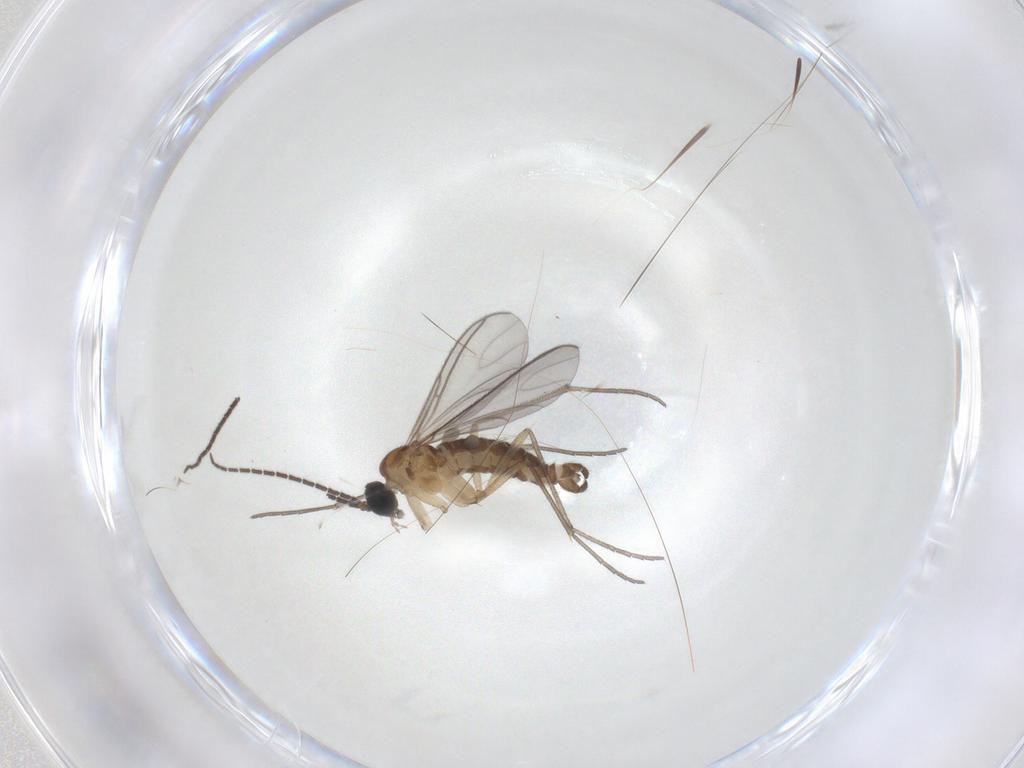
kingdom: Animalia
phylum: Arthropoda
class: Insecta
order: Diptera
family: Sciaridae
